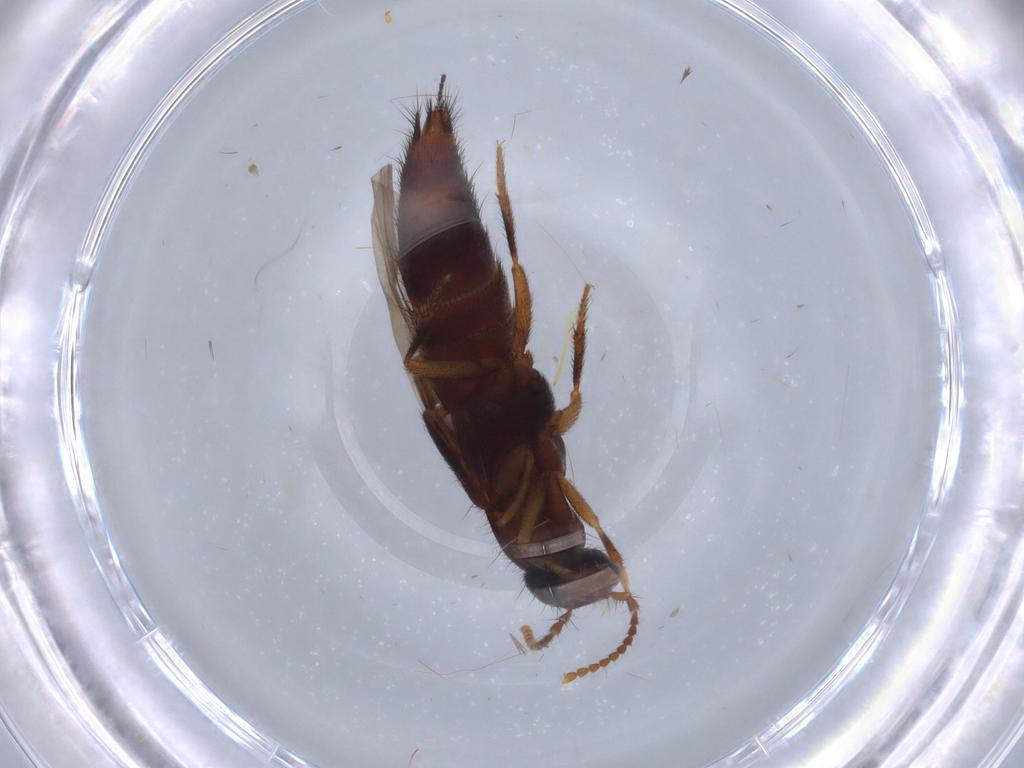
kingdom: Animalia
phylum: Arthropoda
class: Insecta
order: Coleoptera
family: Staphylinidae
